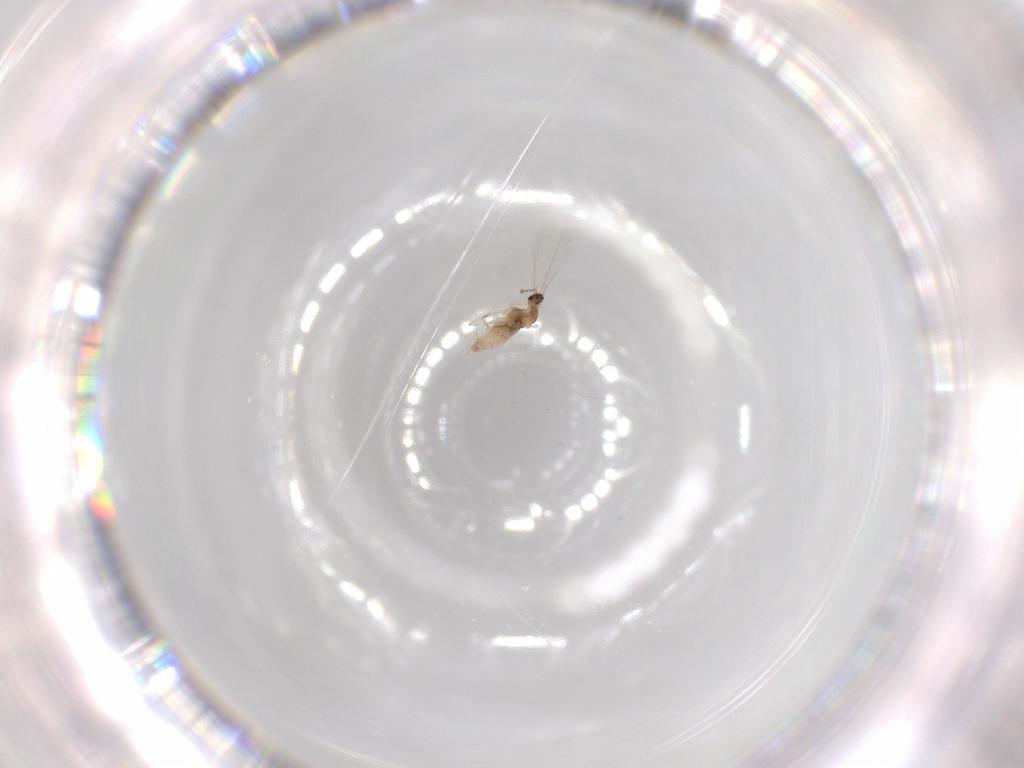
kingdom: Animalia
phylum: Arthropoda
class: Insecta
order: Diptera
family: Cecidomyiidae
